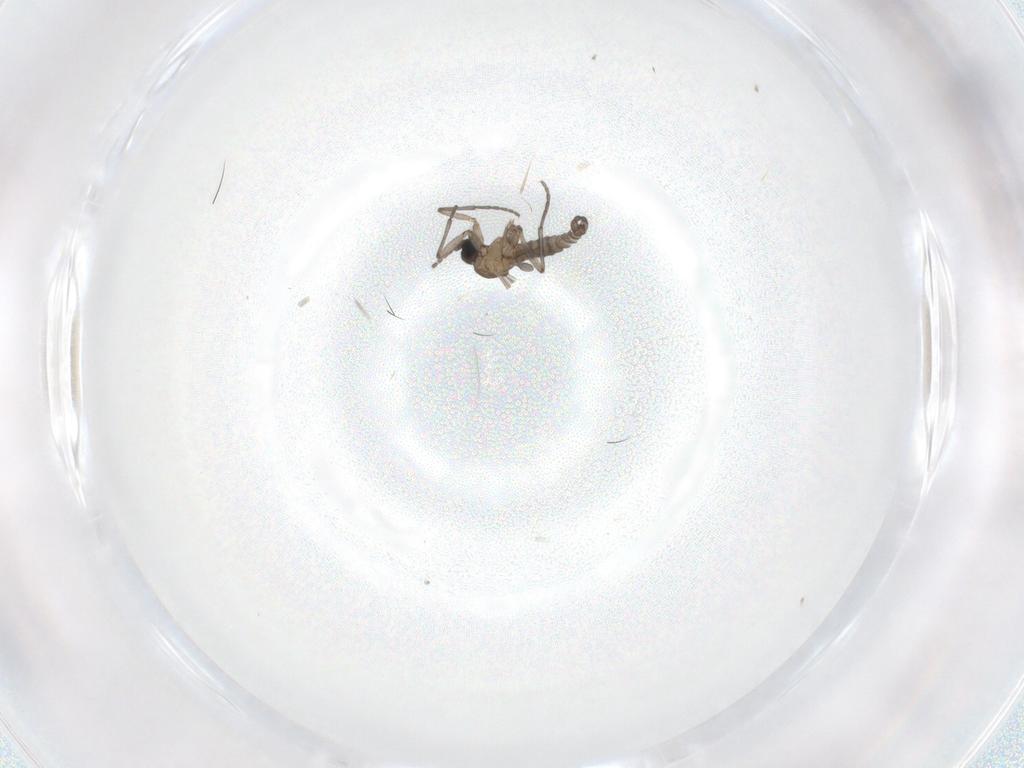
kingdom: Animalia
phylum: Arthropoda
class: Insecta
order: Diptera
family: Sciaridae
